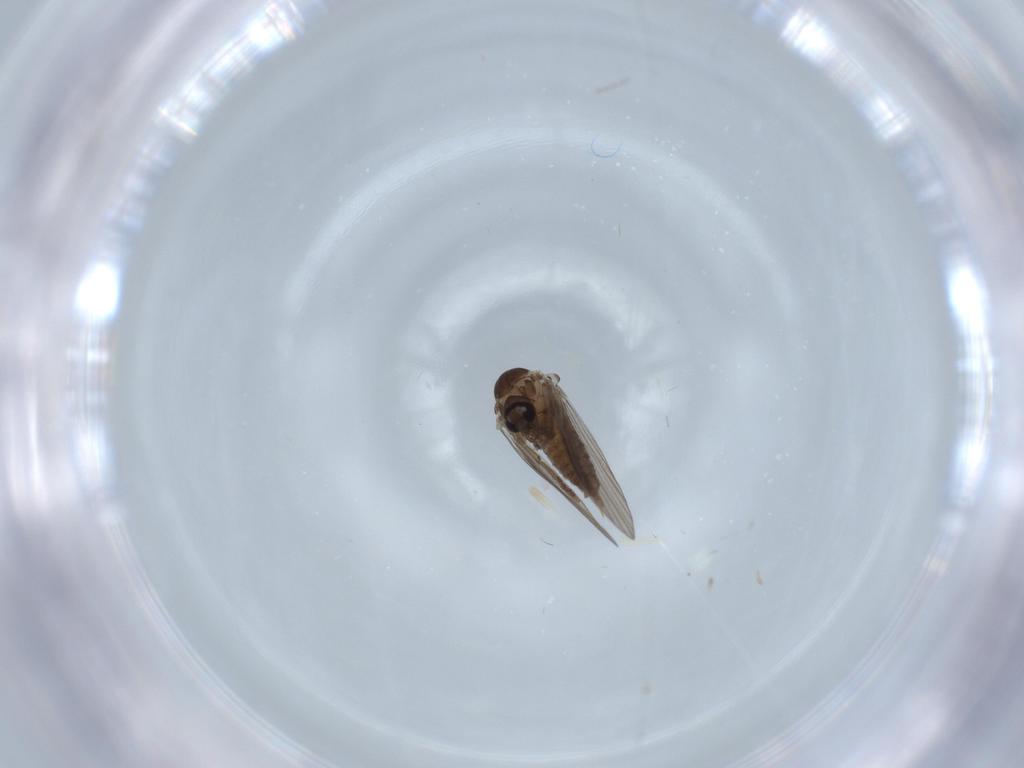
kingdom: Animalia
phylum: Arthropoda
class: Insecta
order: Diptera
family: Psychodidae
